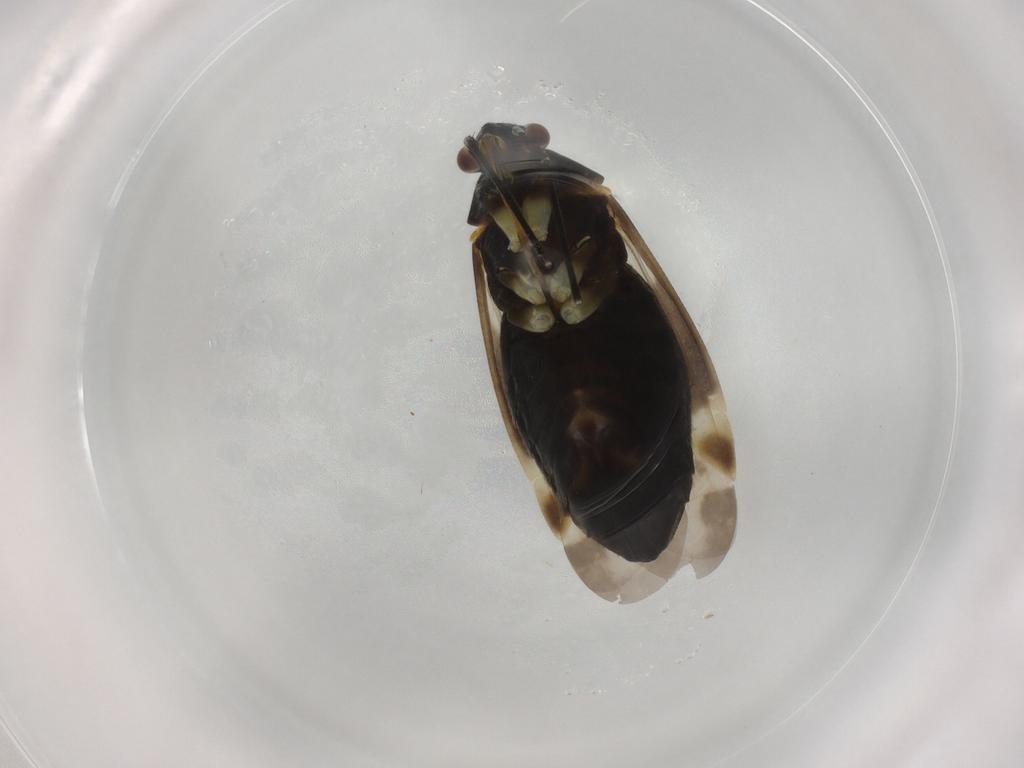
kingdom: Animalia
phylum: Arthropoda
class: Insecta
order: Hemiptera
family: Miridae
